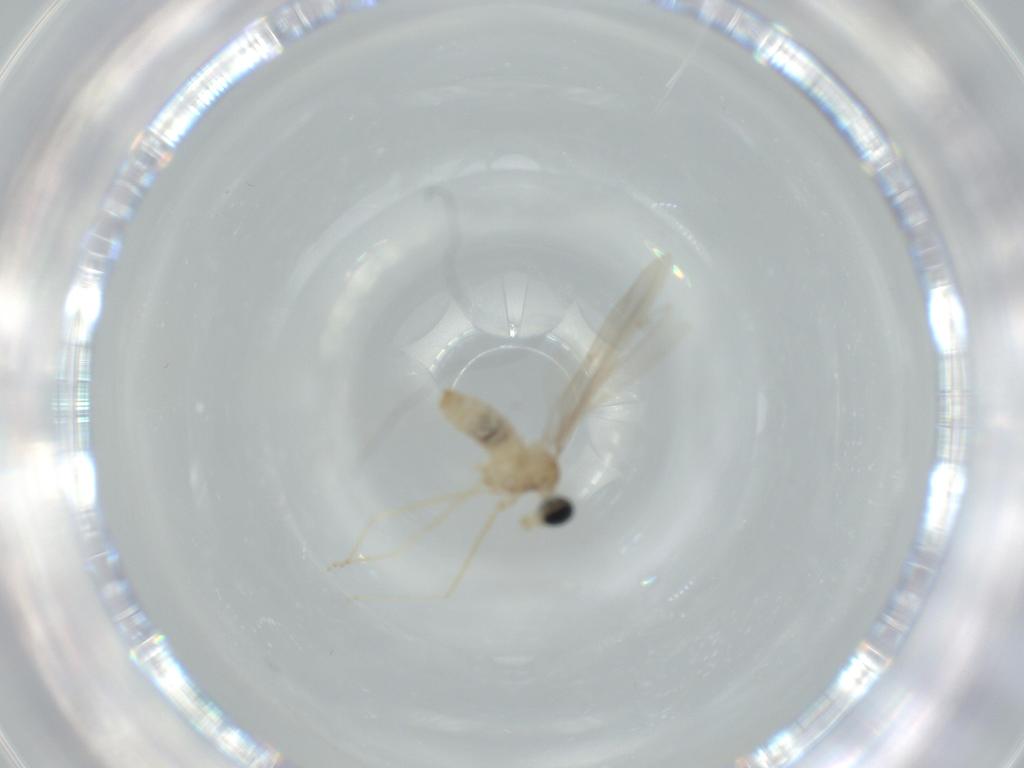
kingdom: Animalia
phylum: Arthropoda
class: Insecta
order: Diptera
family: Cecidomyiidae
